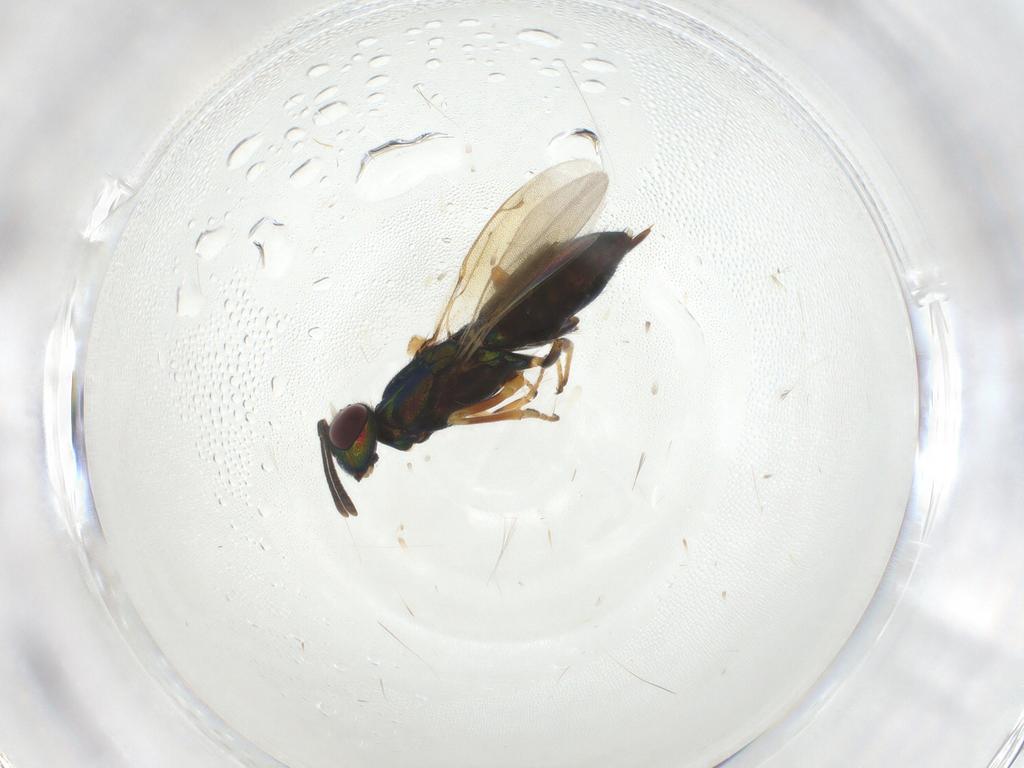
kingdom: Animalia
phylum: Arthropoda
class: Insecta
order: Hymenoptera
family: Eupelmidae
